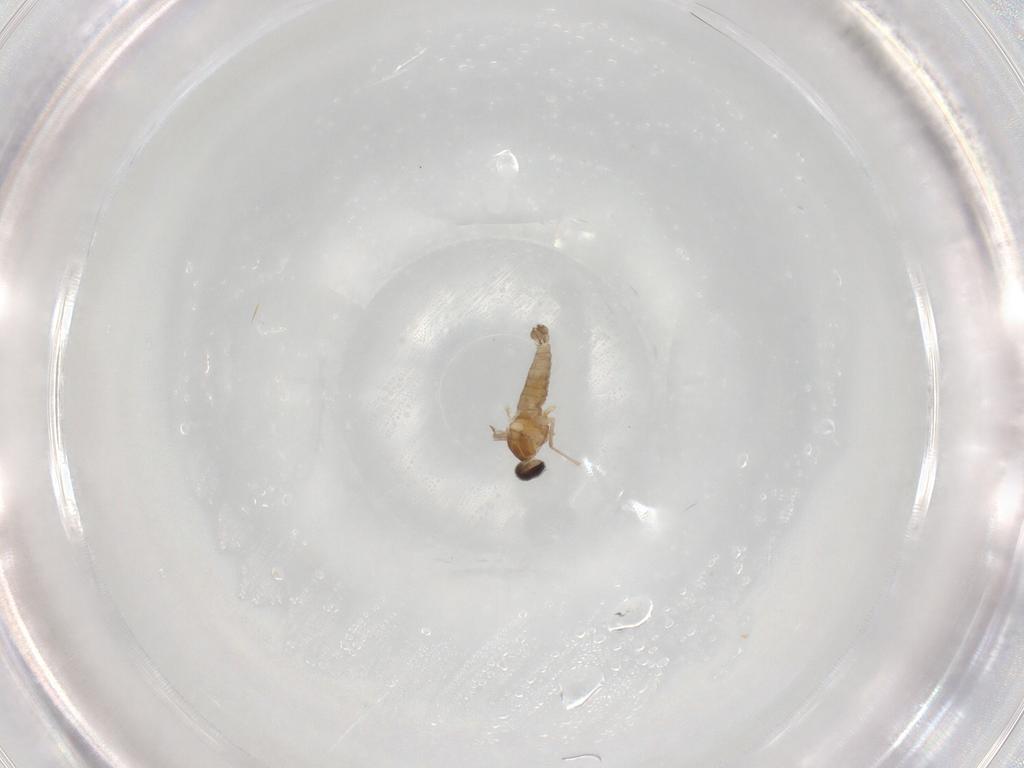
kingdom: Animalia
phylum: Arthropoda
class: Insecta
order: Diptera
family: Cecidomyiidae
